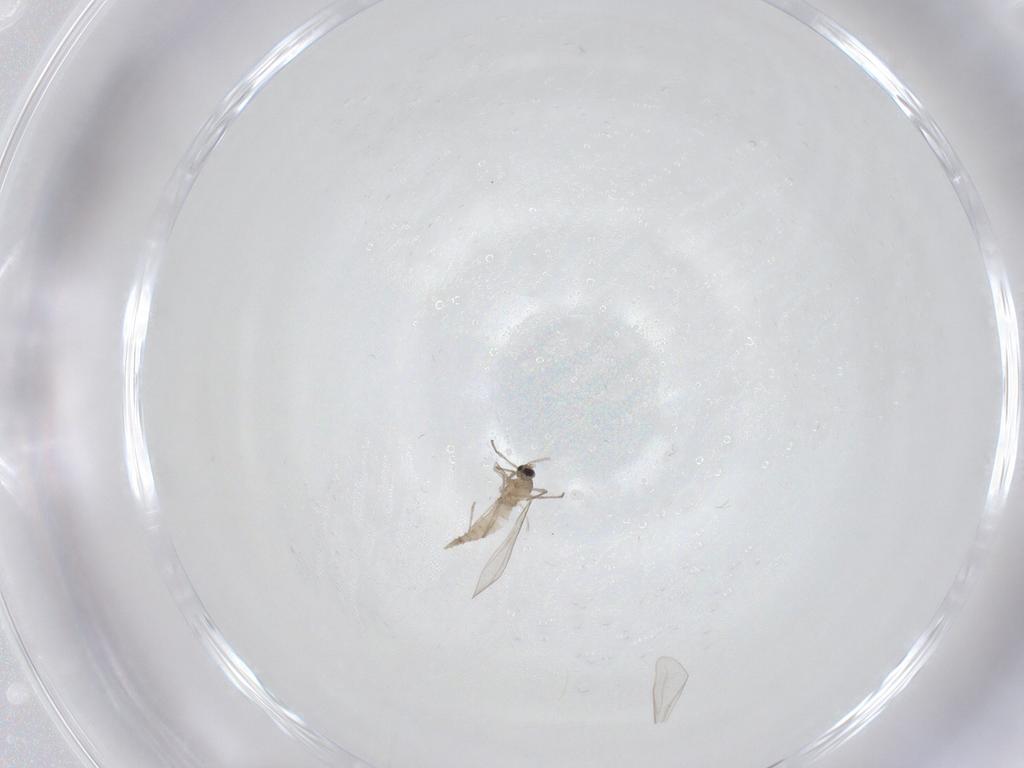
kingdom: Animalia
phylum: Arthropoda
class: Insecta
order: Diptera
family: Cecidomyiidae
